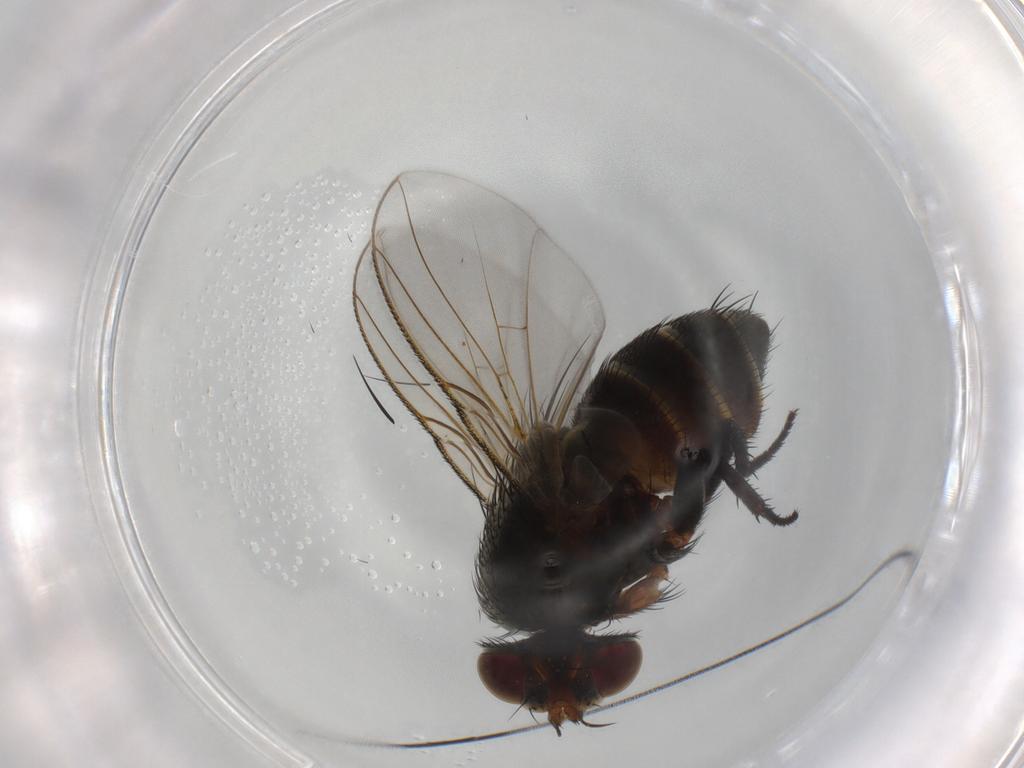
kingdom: Animalia
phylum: Arthropoda
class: Insecta
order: Diptera
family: Tachinidae
